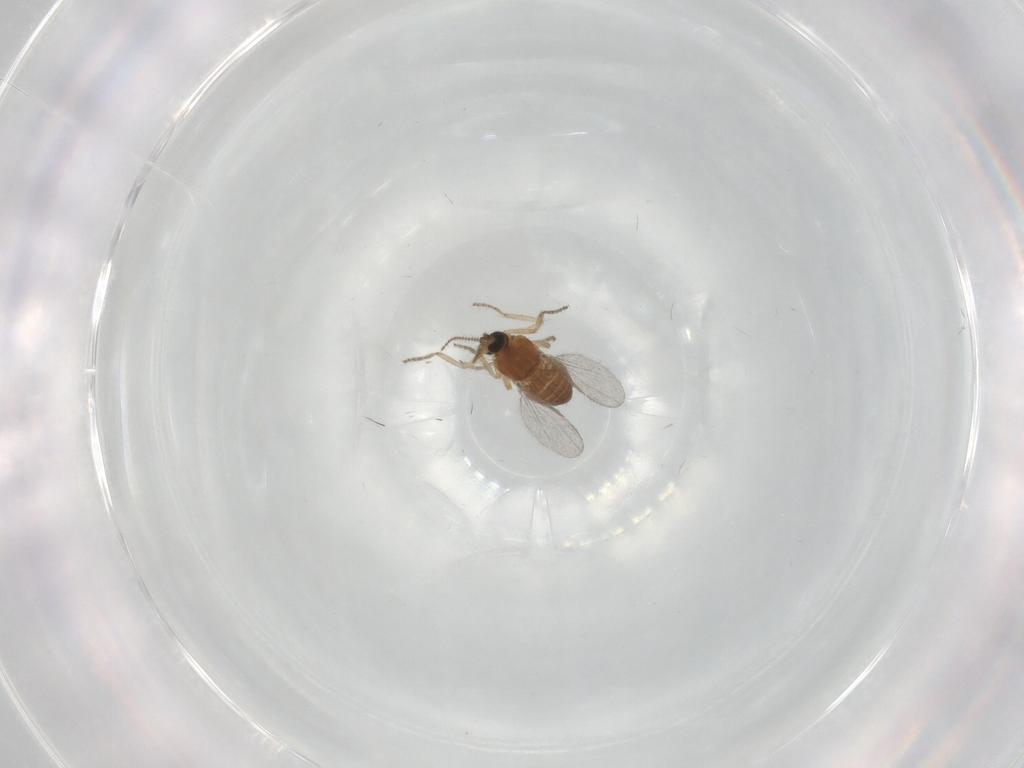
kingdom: Animalia
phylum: Arthropoda
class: Insecta
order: Diptera
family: Ceratopogonidae
